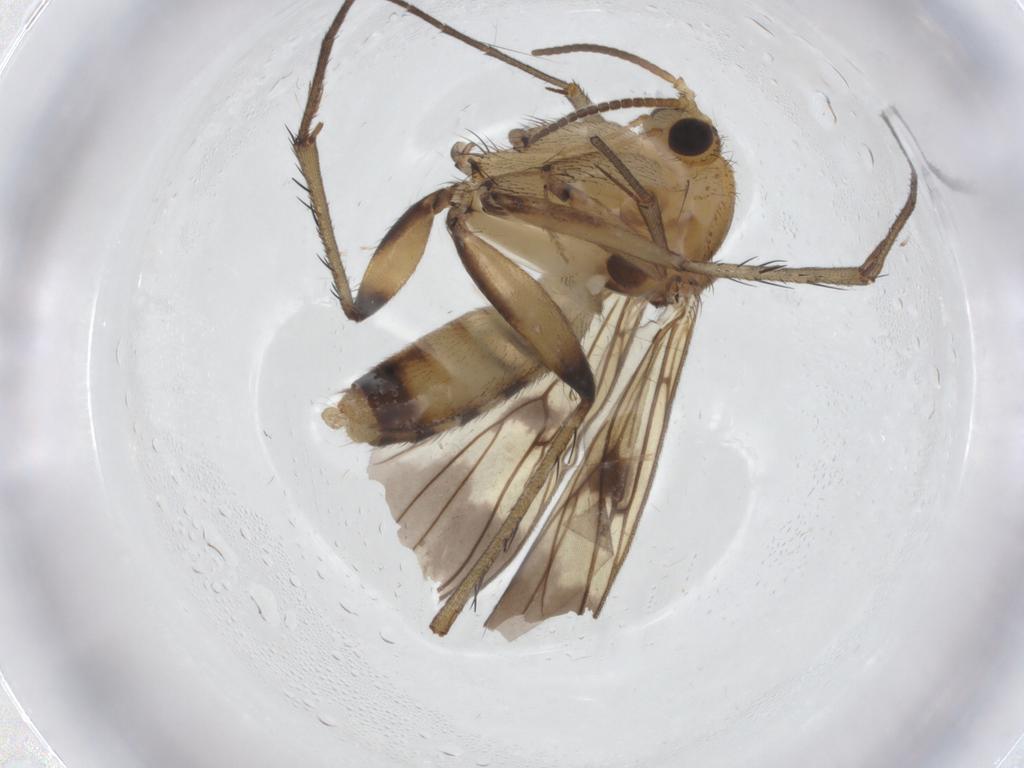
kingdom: Animalia
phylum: Arthropoda
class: Insecta
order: Diptera
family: Mycetophilidae
